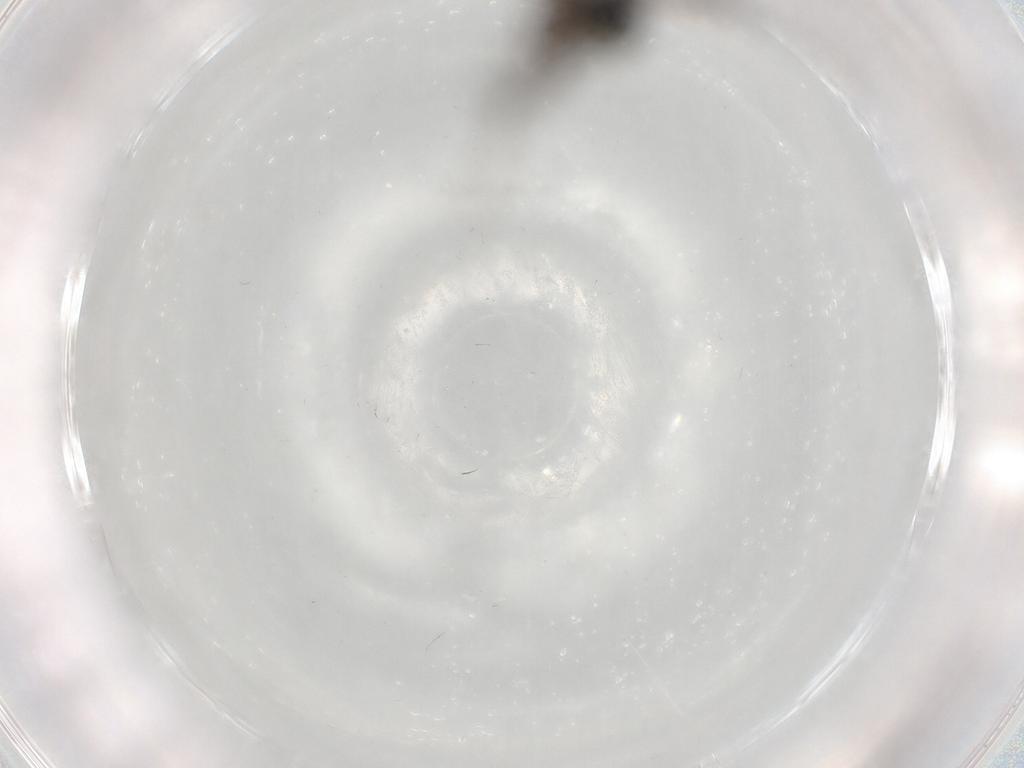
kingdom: Animalia
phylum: Arthropoda
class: Insecta
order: Hymenoptera
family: Proctotrupidae
